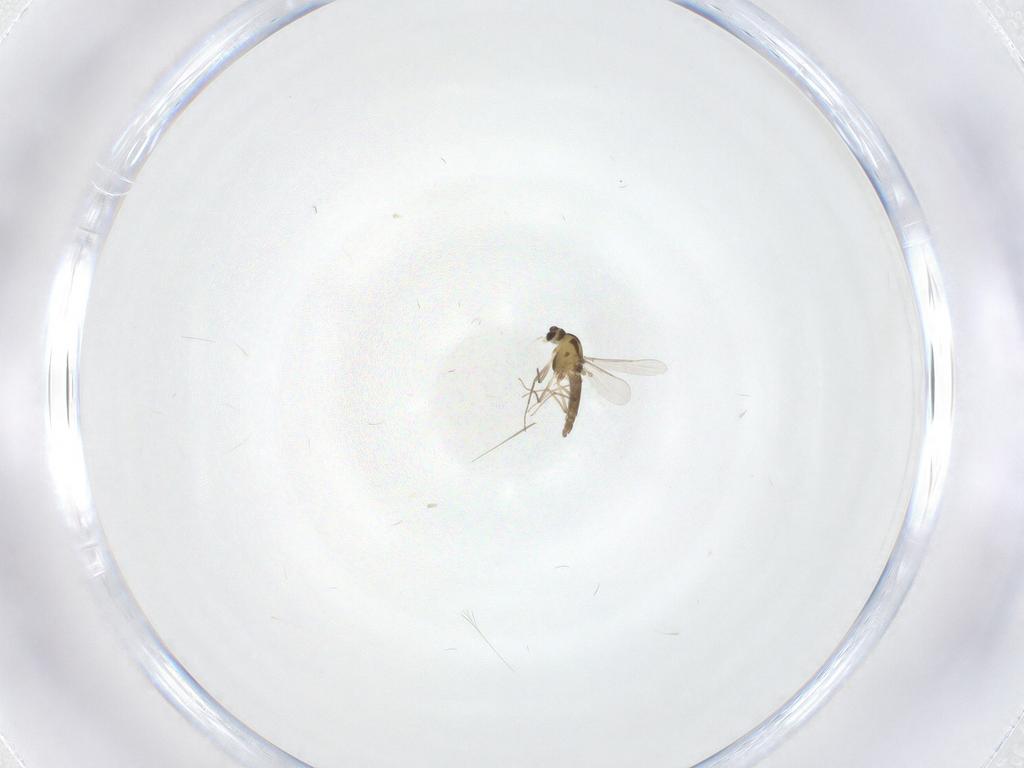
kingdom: Animalia
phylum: Arthropoda
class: Insecta
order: Diptera
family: Chironomidae
